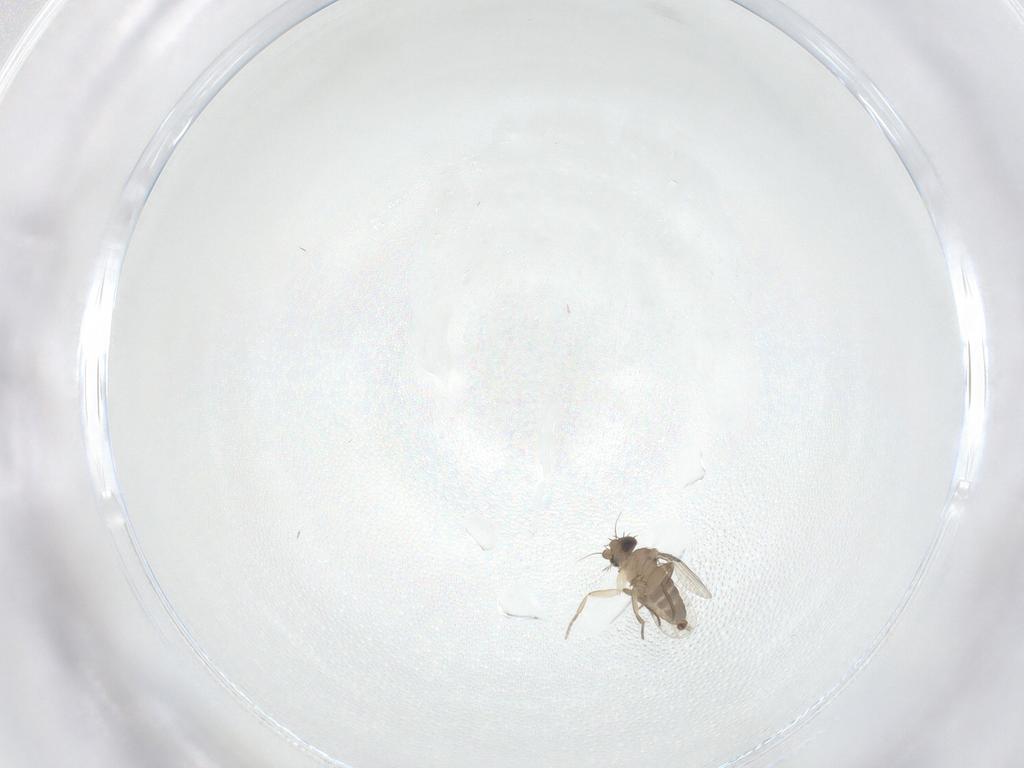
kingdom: Animalia
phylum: Arthropoda
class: Insecta
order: Diptera
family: Phoridae
